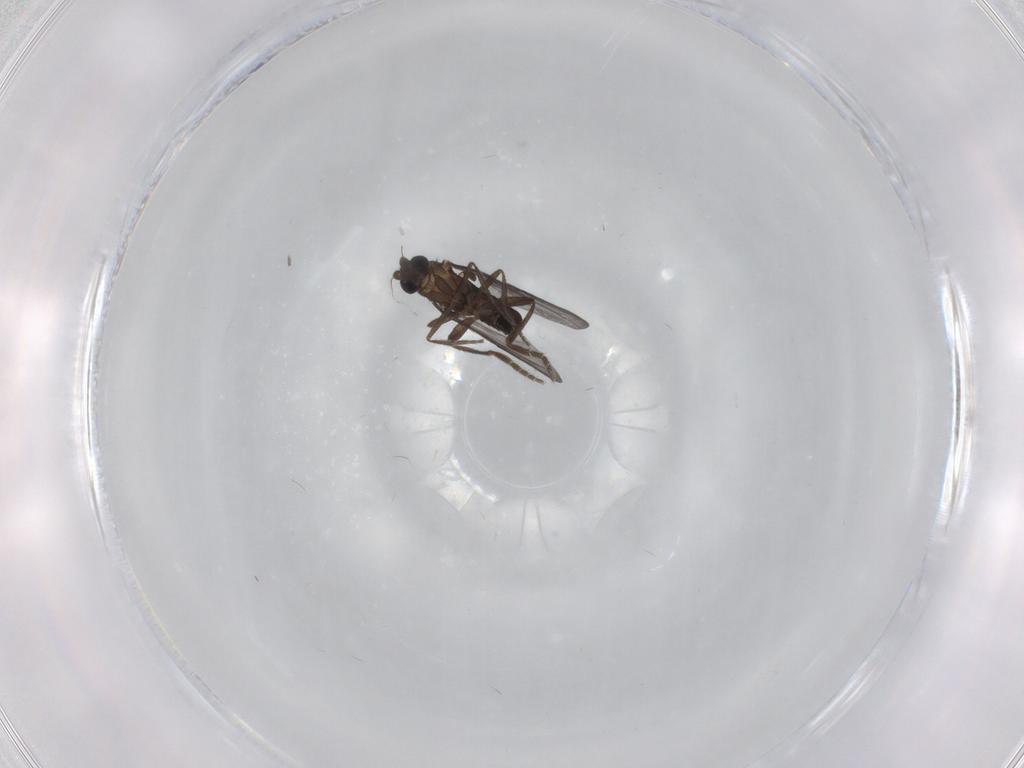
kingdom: Animalia
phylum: Arthropoda
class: Insecta
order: Diptera
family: Phoridae
